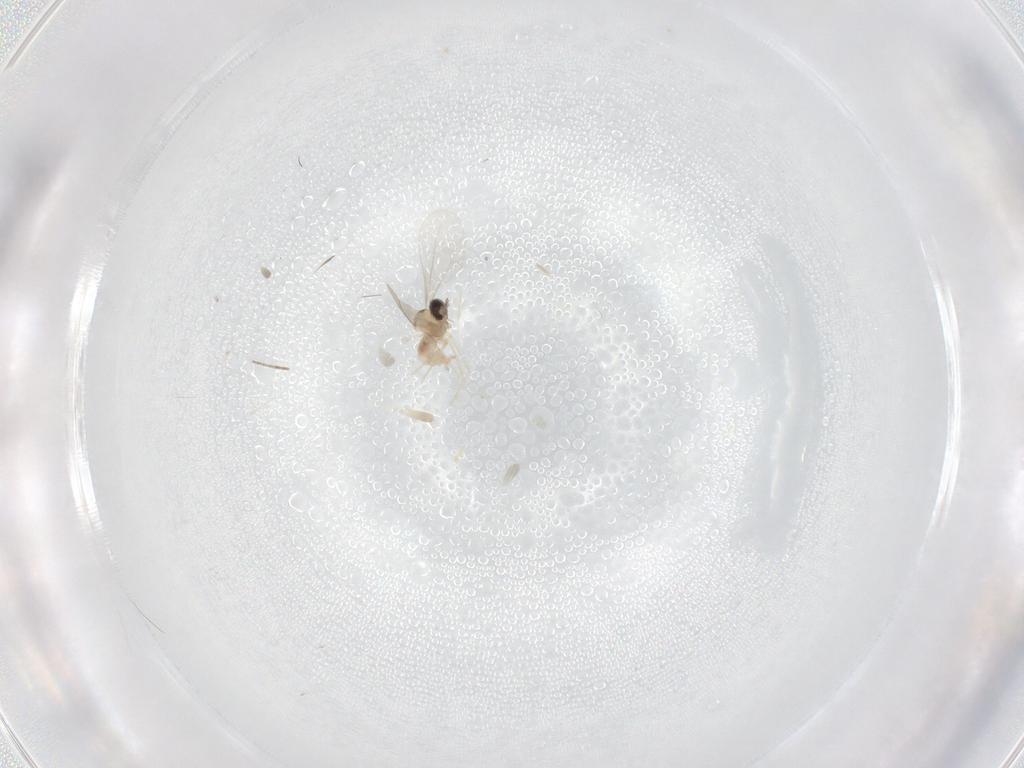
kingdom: Animalia
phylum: Arthropoda
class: Insecta
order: Diptera
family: Cecidomyiidae
